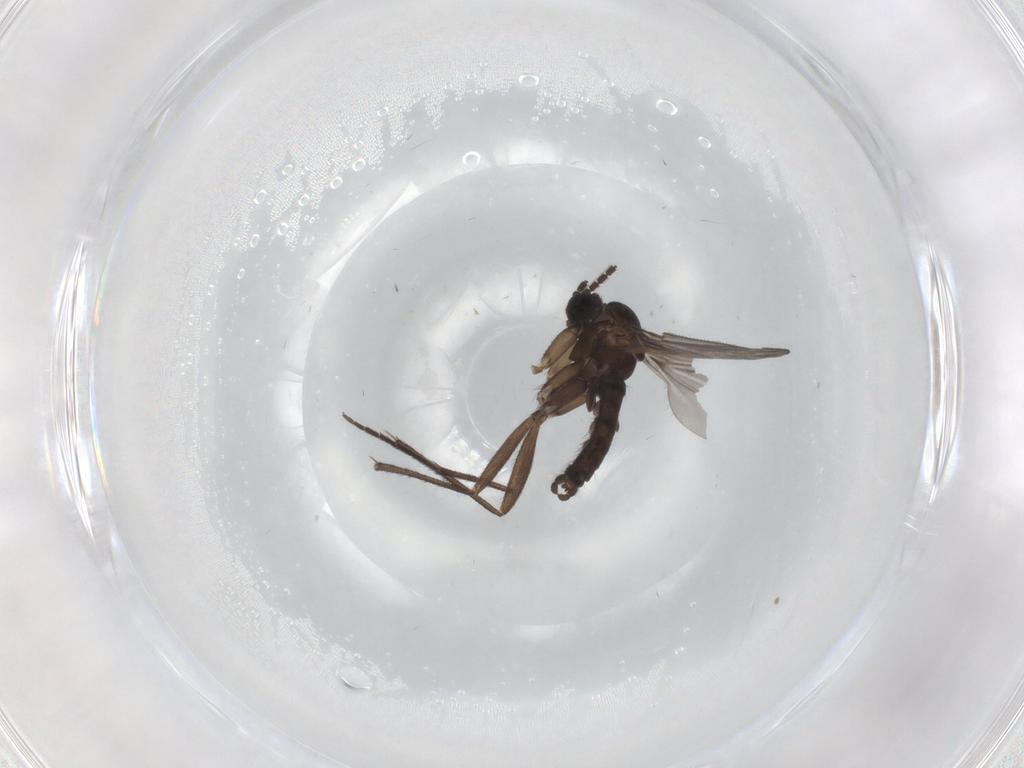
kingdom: Animalia
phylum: Arthropoda
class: Insecta
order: Diptera
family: Sciaridae
